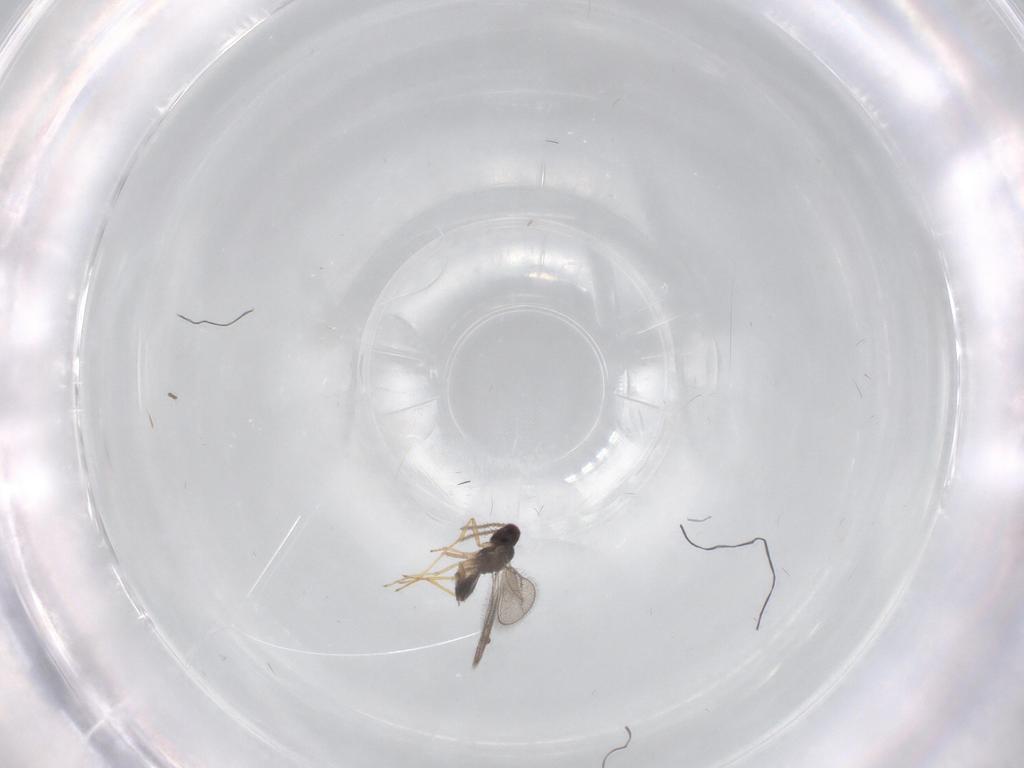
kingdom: Animalia
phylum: Arthropoda
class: Insecta
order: Hymenoptera
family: Eulophidae
